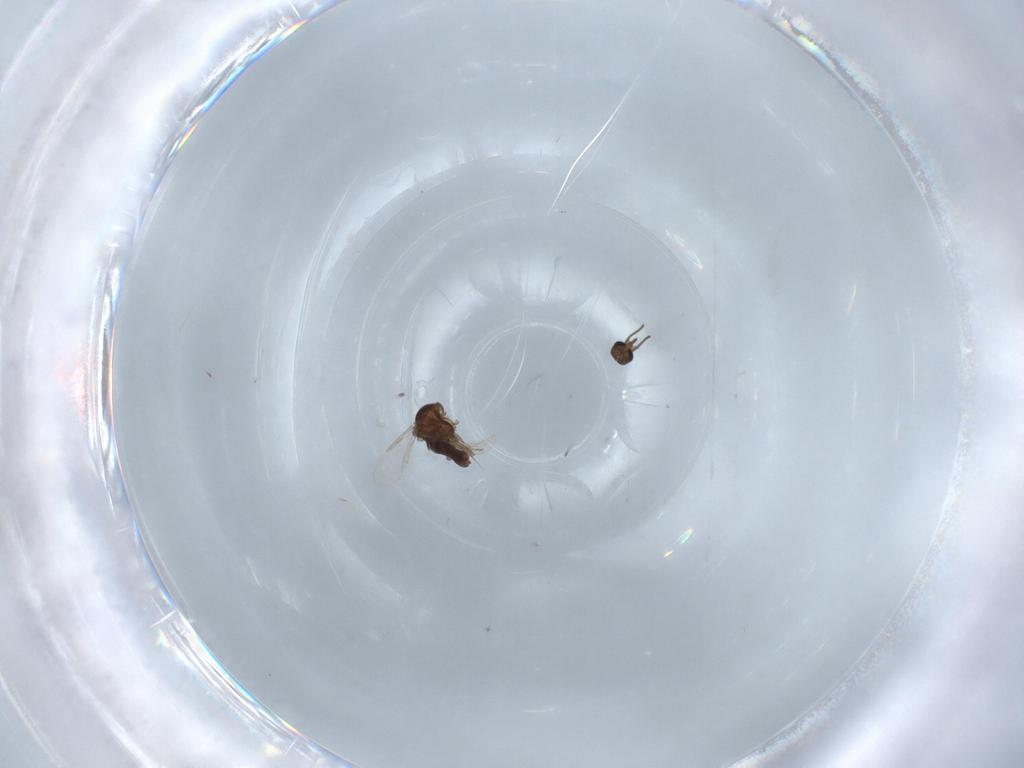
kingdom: Animalia
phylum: Arthropoda
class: Insecta
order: Diptera
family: Ceratopogonidae
